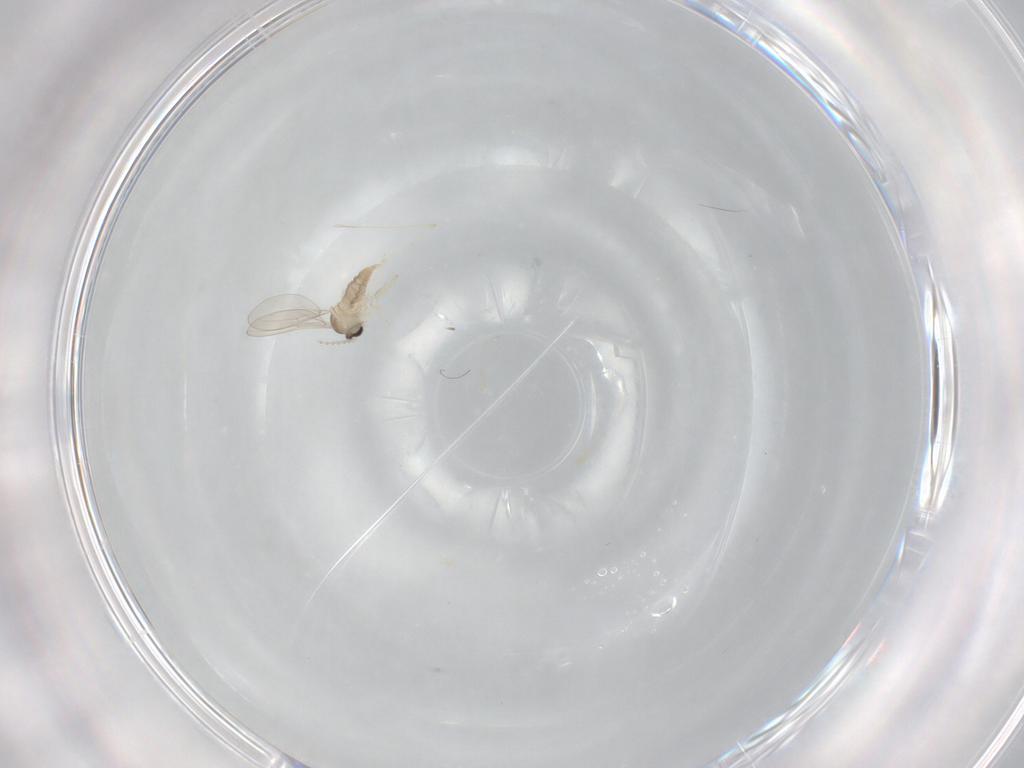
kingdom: Animalia
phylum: Arthropoda
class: Insecta
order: Diptera
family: Cecidomyiidae
